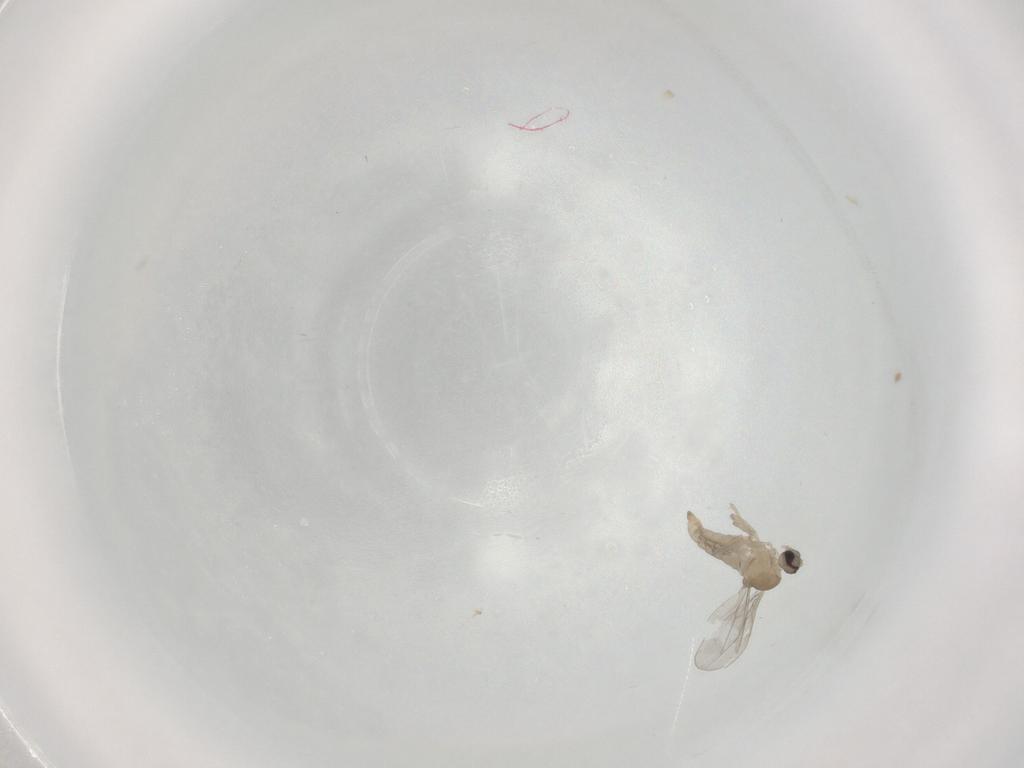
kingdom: Animalia
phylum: Arthropoda
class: Insecta
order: Diptera
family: Cecidomyiidae
